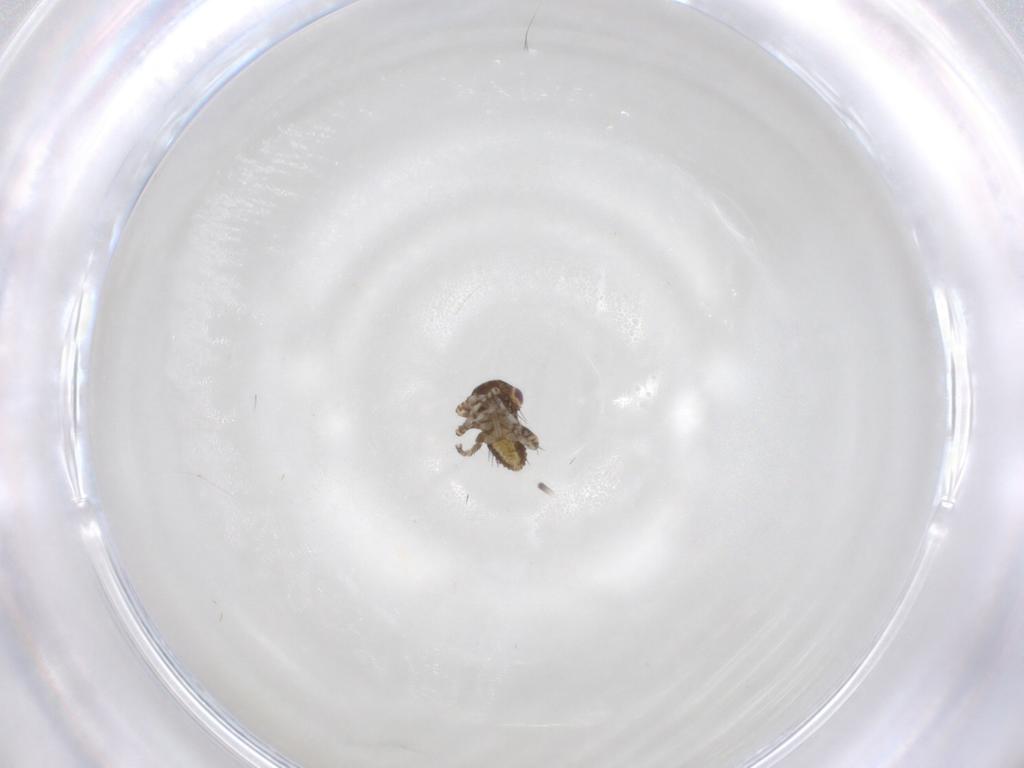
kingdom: Animalia
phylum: Arthropoda
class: Insecta
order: Hemiptera
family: Cicadellidae
